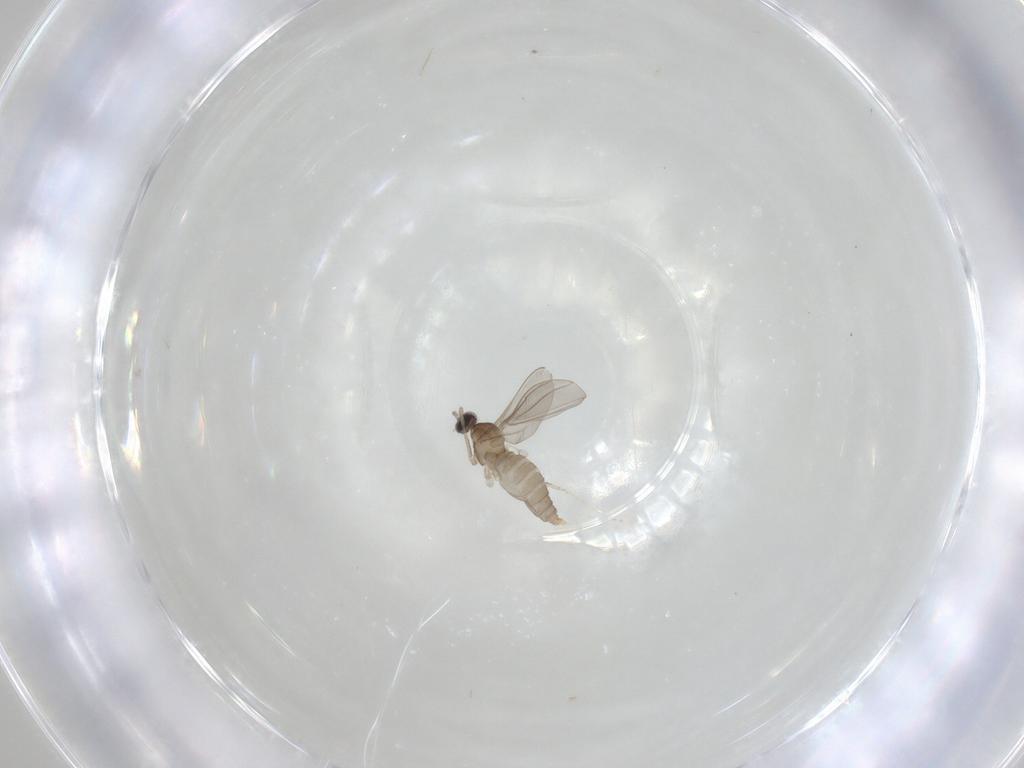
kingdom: Animalia
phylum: Arthropoda
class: Insecta
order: Diptera
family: Cecidomyiidae
